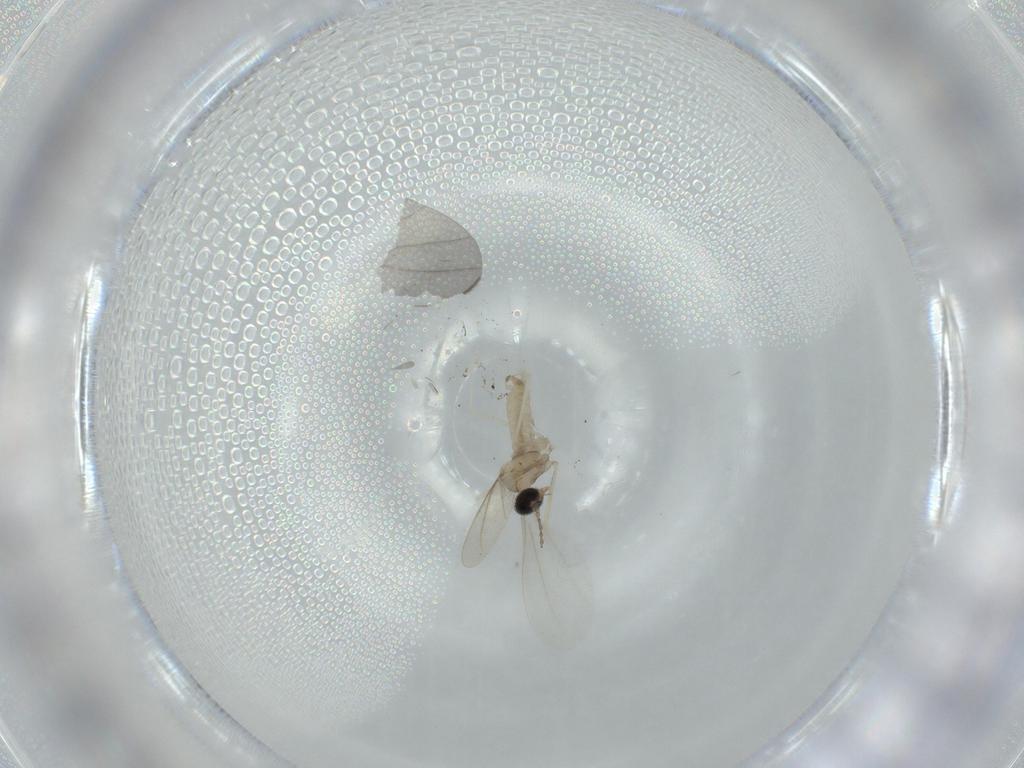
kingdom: Animalia
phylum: Arthropoda
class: Insecta
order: Diptera
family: Cecidomyiidae
